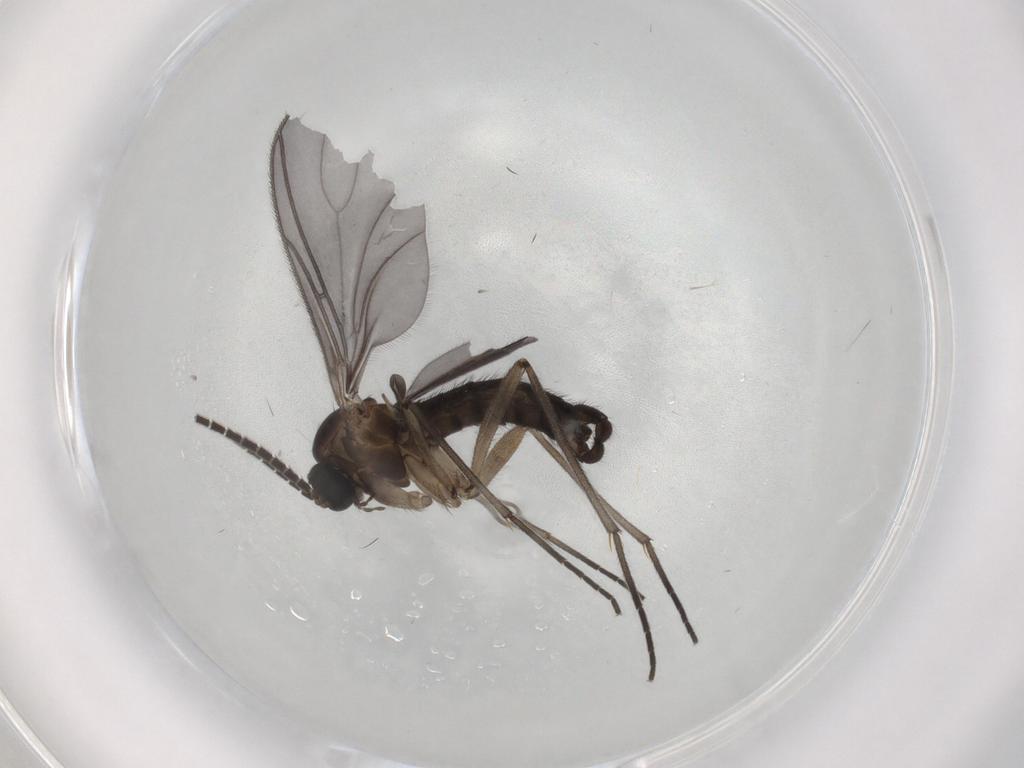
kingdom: Animalia
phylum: Arthropoda
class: Insecta
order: Diptera
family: Sciaridae
